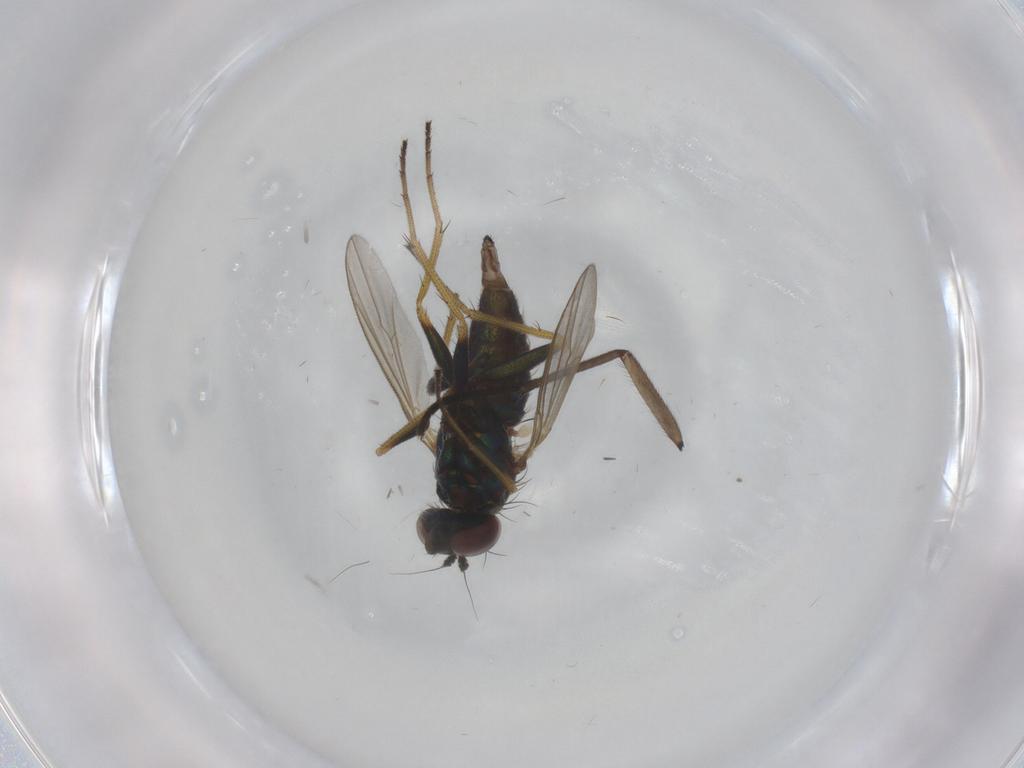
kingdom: Animalia
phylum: Arthropoda
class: Insecta
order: Diptera
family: Dolichopodidae
